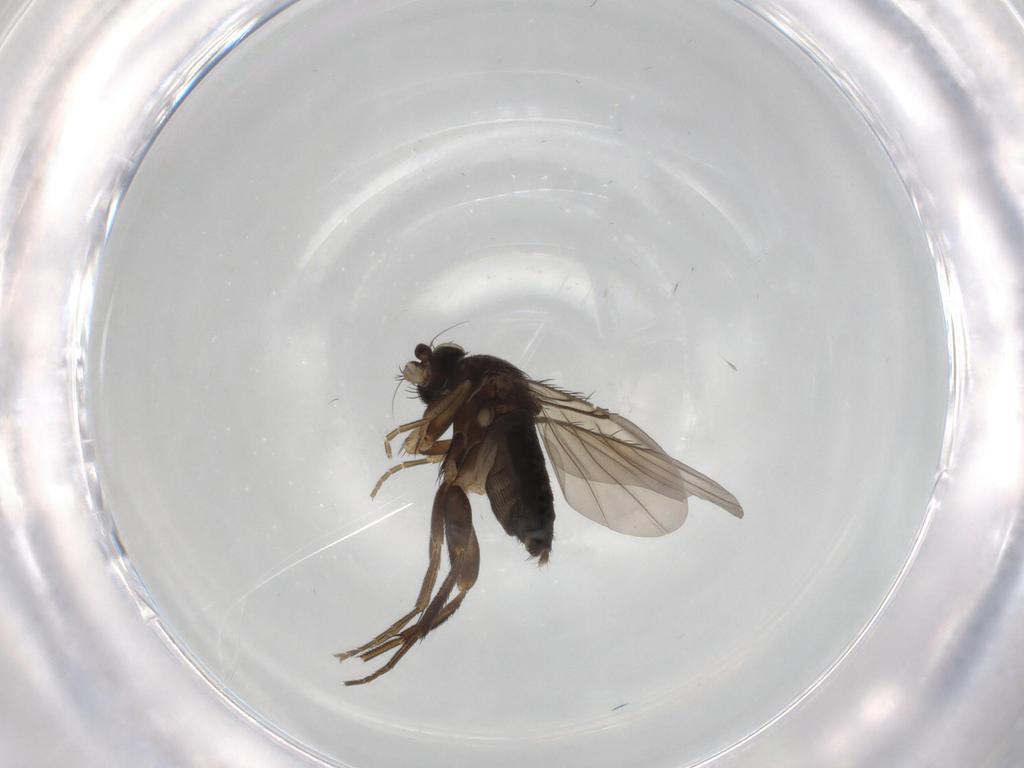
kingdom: Animalia
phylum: Arthropoda
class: Insecta
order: Diptera
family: Phoridae
